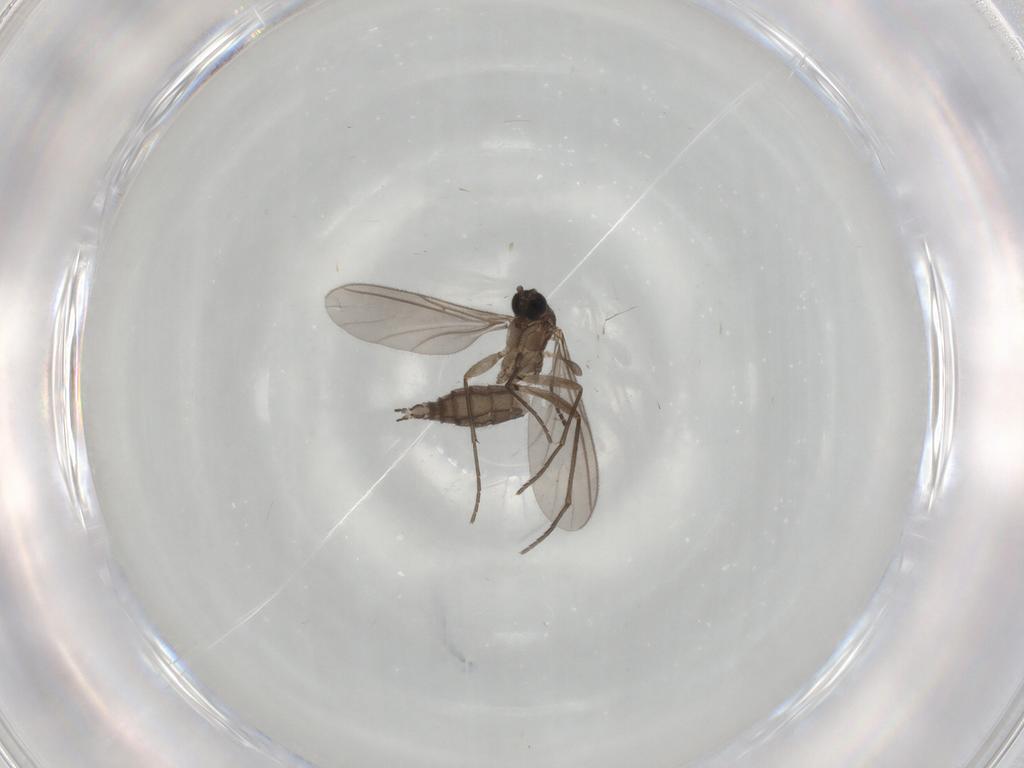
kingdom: Animalia
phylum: Arthropoda
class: Insecta
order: Diptera
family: Sciaridae
